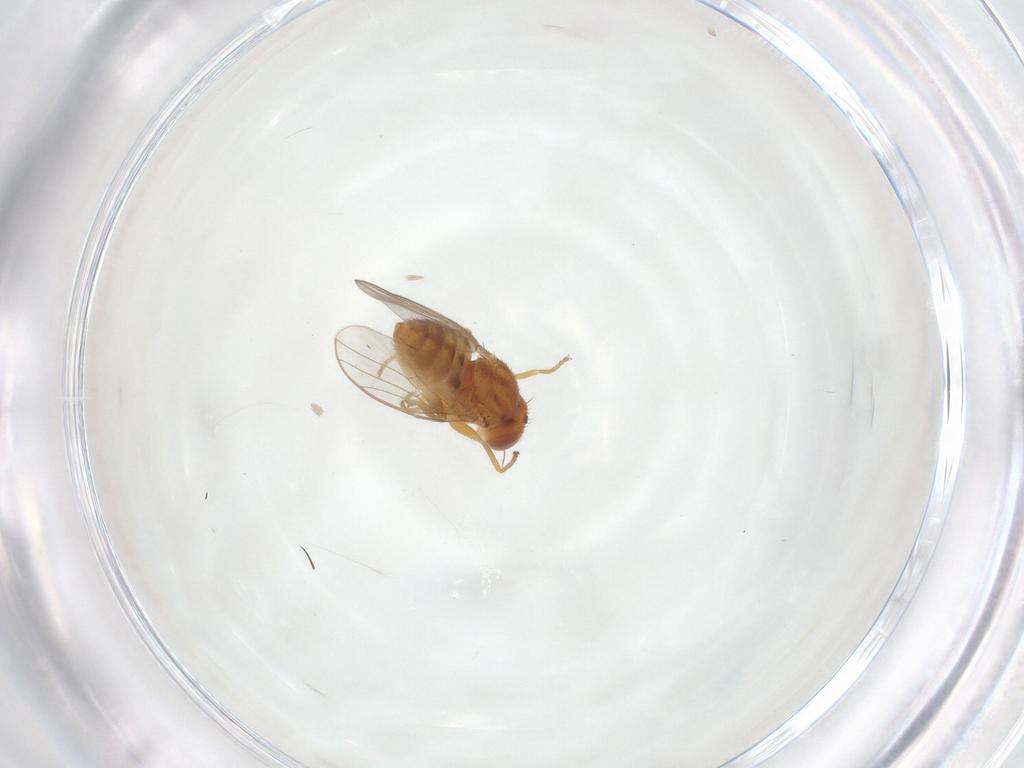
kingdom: Animalia
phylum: Arthropoda
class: Insecta
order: Diptera
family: Chloropidae
